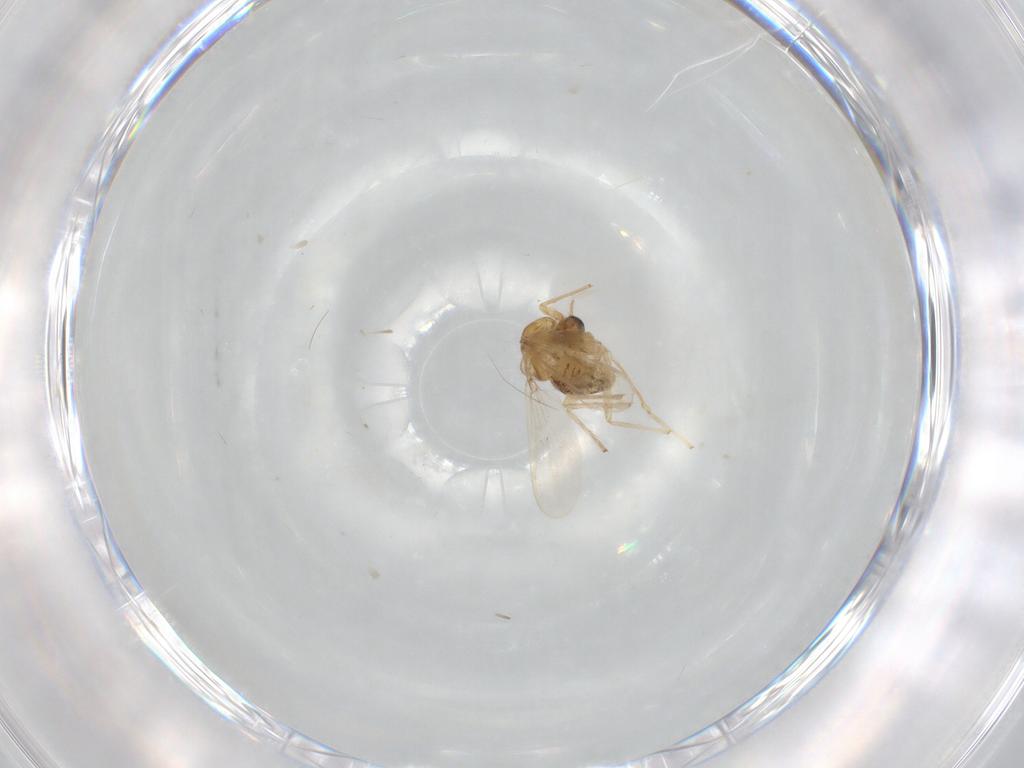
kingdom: Animalia
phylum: Arthropoda
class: Insecta
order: Diptera
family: Chironomidae
